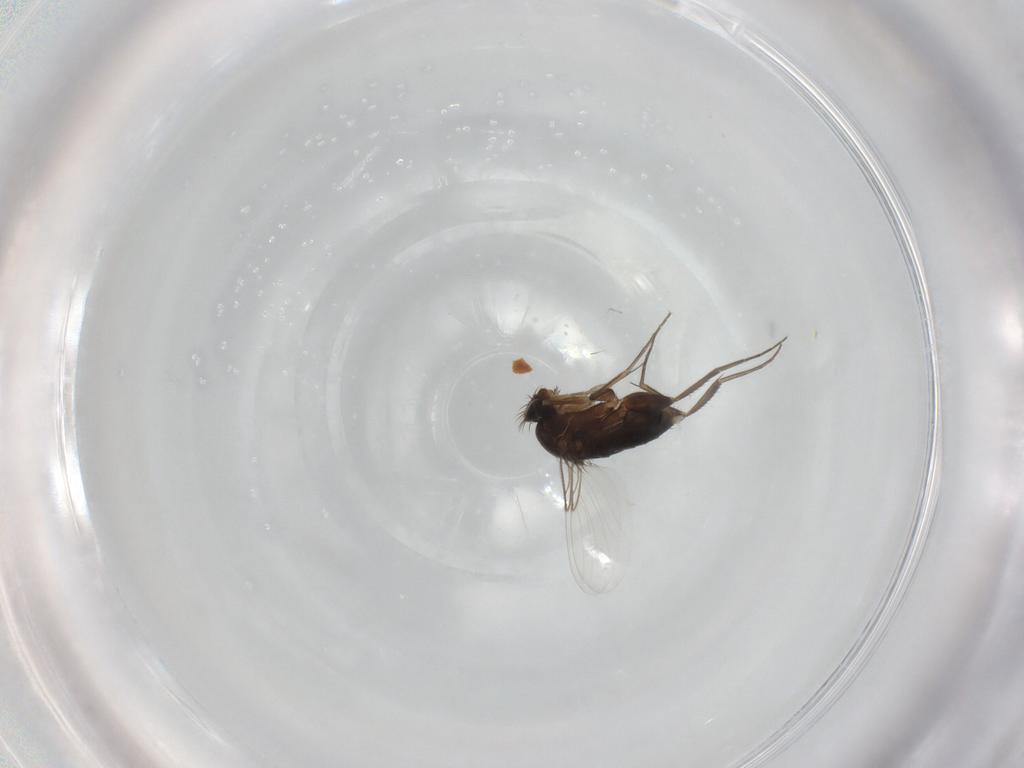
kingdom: Animalia
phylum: Arthropoda
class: Insecta
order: Diptera
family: Phoridae
